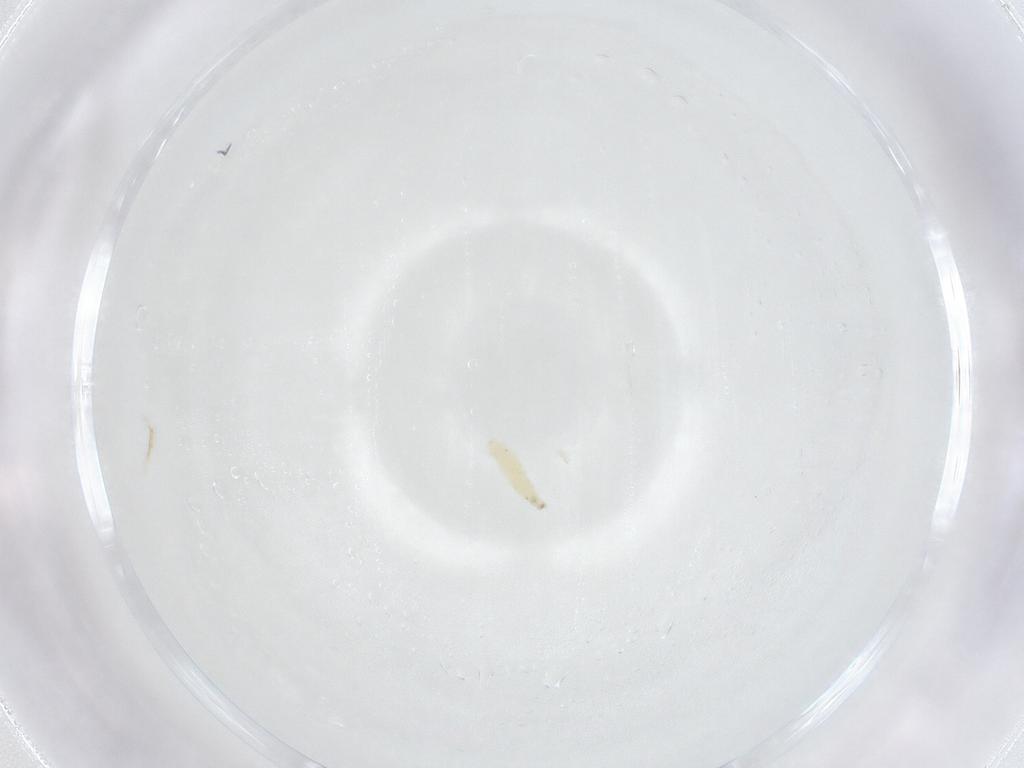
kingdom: Animalia
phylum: Arthropoda
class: Insecta
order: Diptera
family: Sarcophagidae
